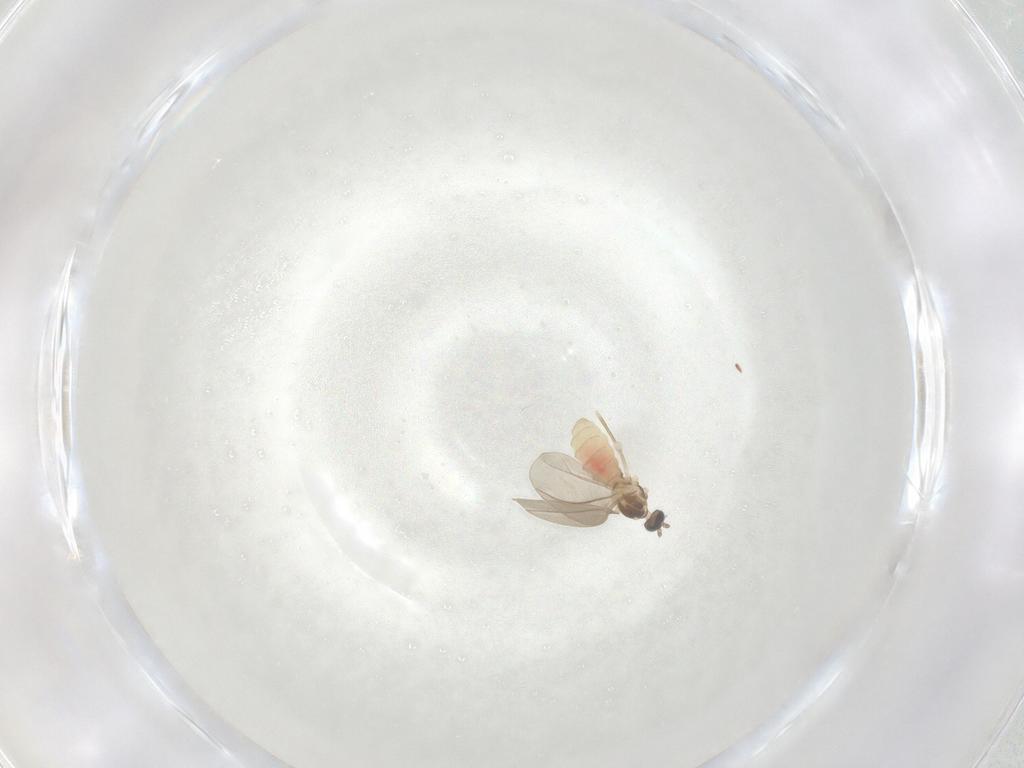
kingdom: Animalia
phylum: Arthropoda
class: Insecta
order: Diptera
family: Cecidomyiidae
